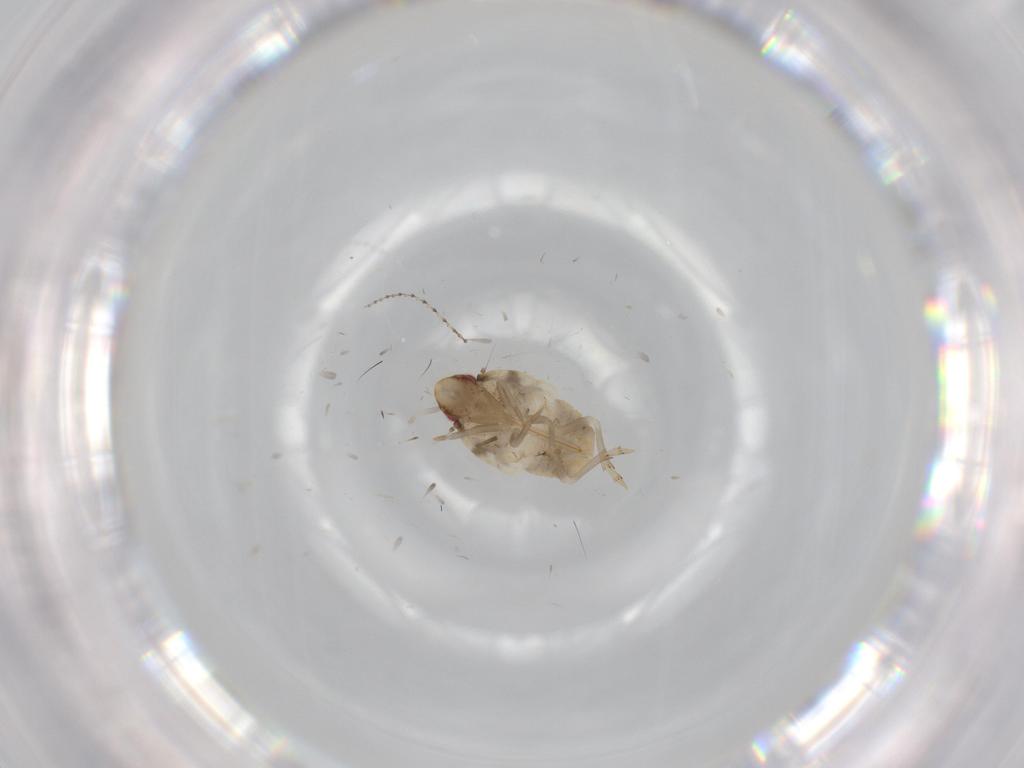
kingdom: Animalia
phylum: Arthropoda
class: Insecta
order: Hemiptera
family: Flatidae
